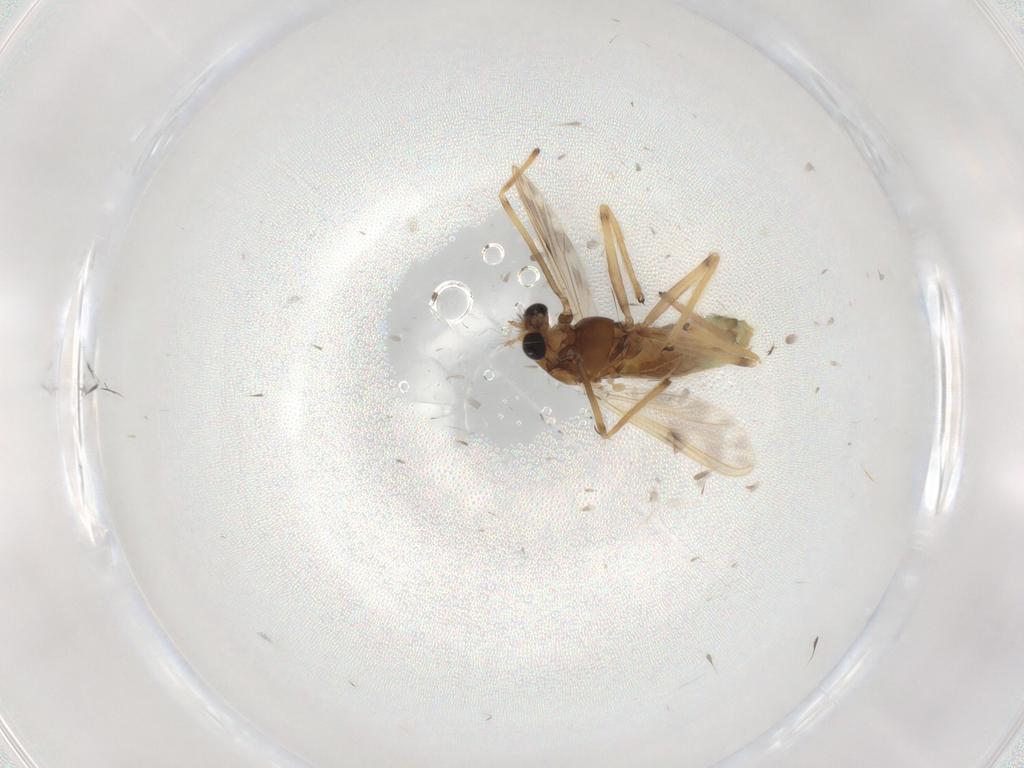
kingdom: Animalia
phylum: Arthropoda
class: Insecta
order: Diptera
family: Chironomidae
